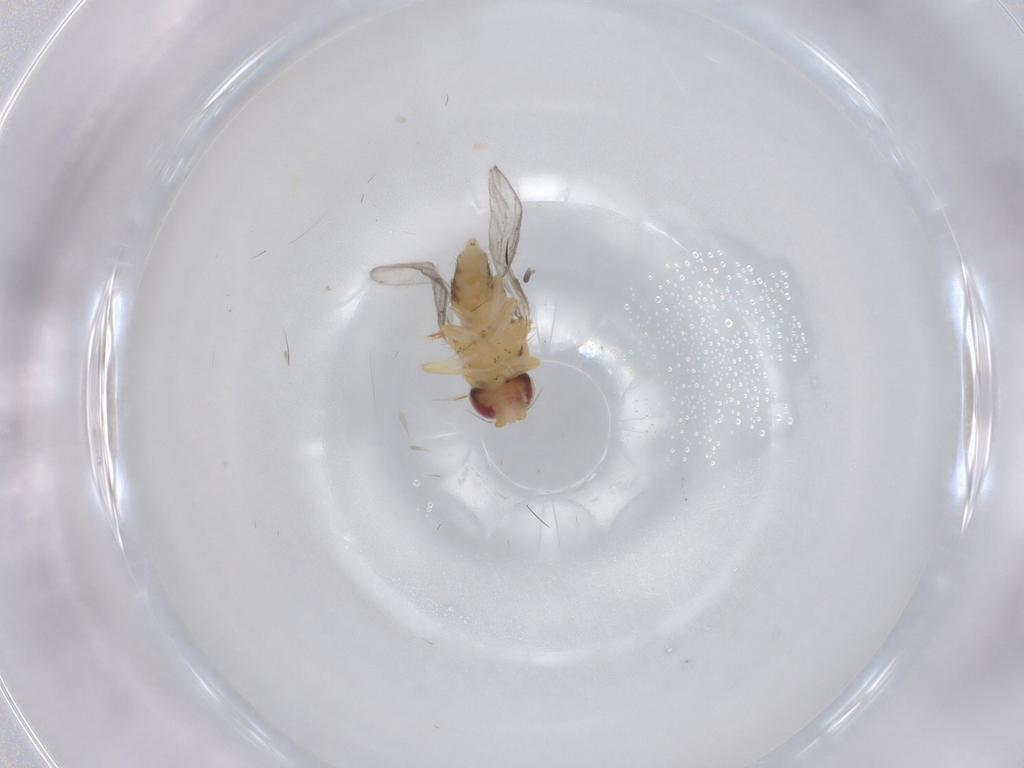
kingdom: Animalia
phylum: Arthropoda
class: Insecta
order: Diptera
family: Chloropidae
